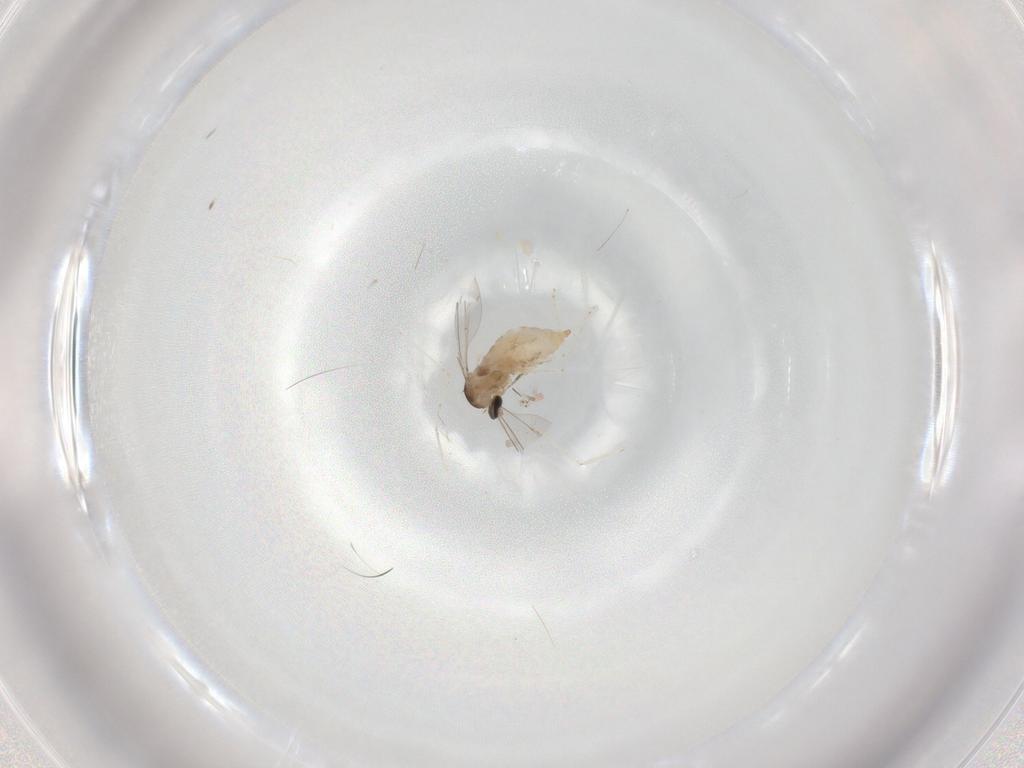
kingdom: Animalia
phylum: Arthropoda
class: Insecta
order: Diptera
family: Cecidomyiidae
